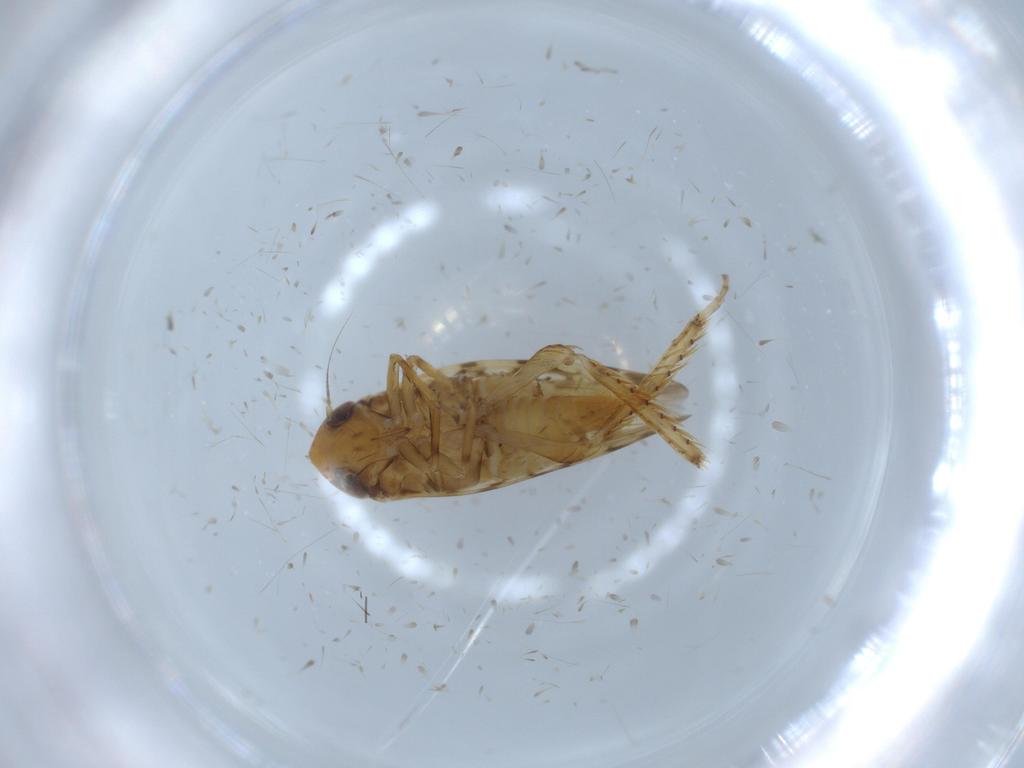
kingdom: Animalia
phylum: Arthropoda
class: Insecta
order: Hemiptera
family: Cicadellidae
